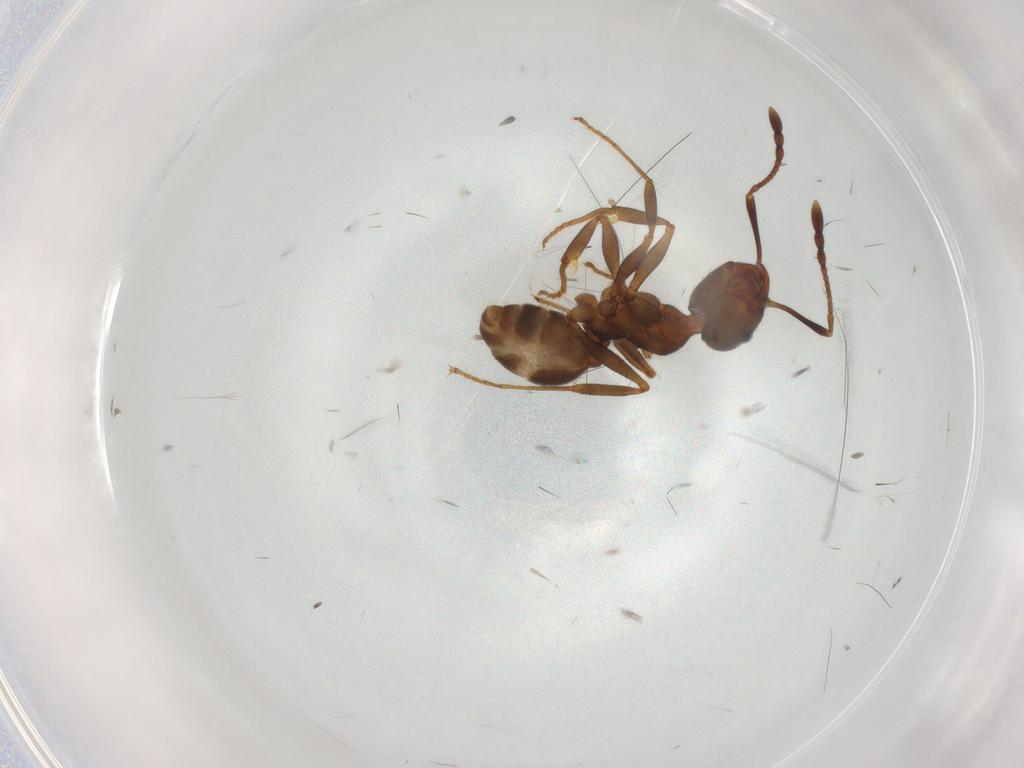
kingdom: Animalia
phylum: Arthropoda
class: Insecta
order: Hymenoptera
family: Formicidae
